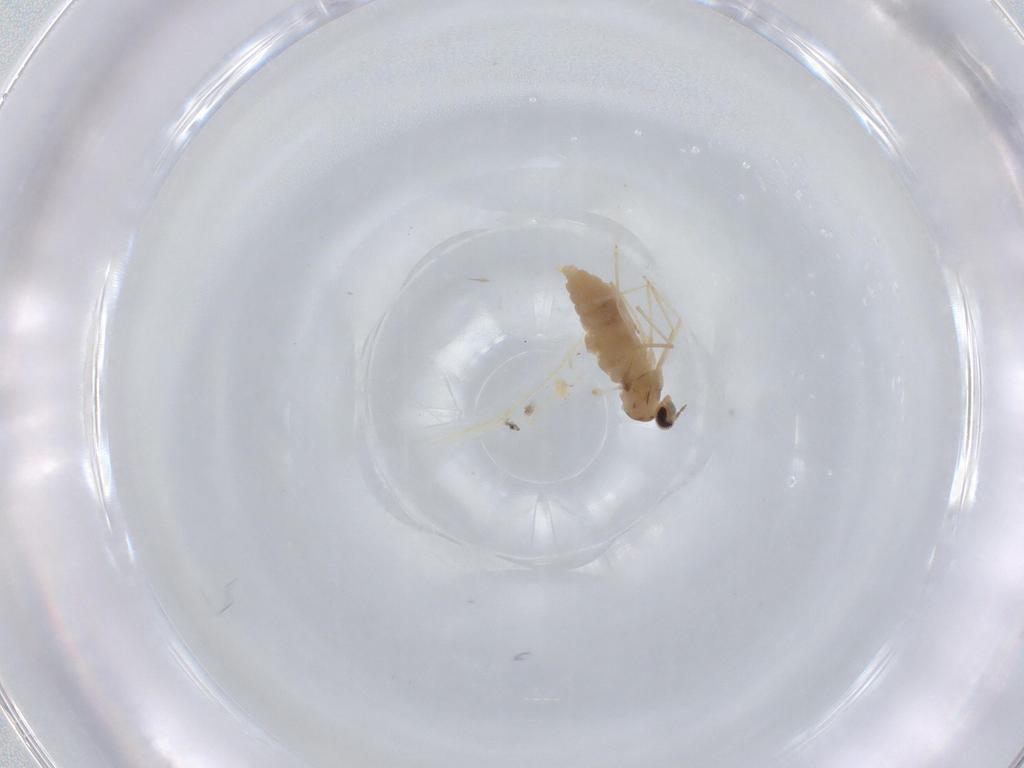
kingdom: Animalia
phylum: Arthropoda
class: Insecta
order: Diptera
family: Cecidomyiidae
